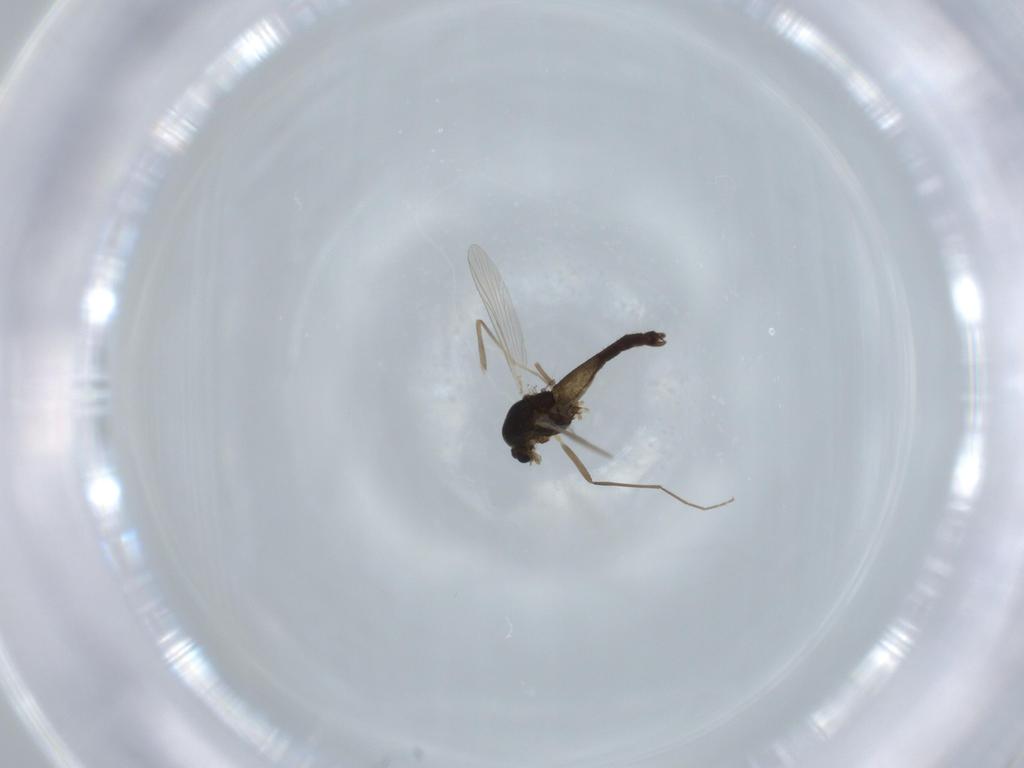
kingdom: Animalia
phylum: Arthropoda
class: Insecta
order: Diptera
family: Chironomidae
